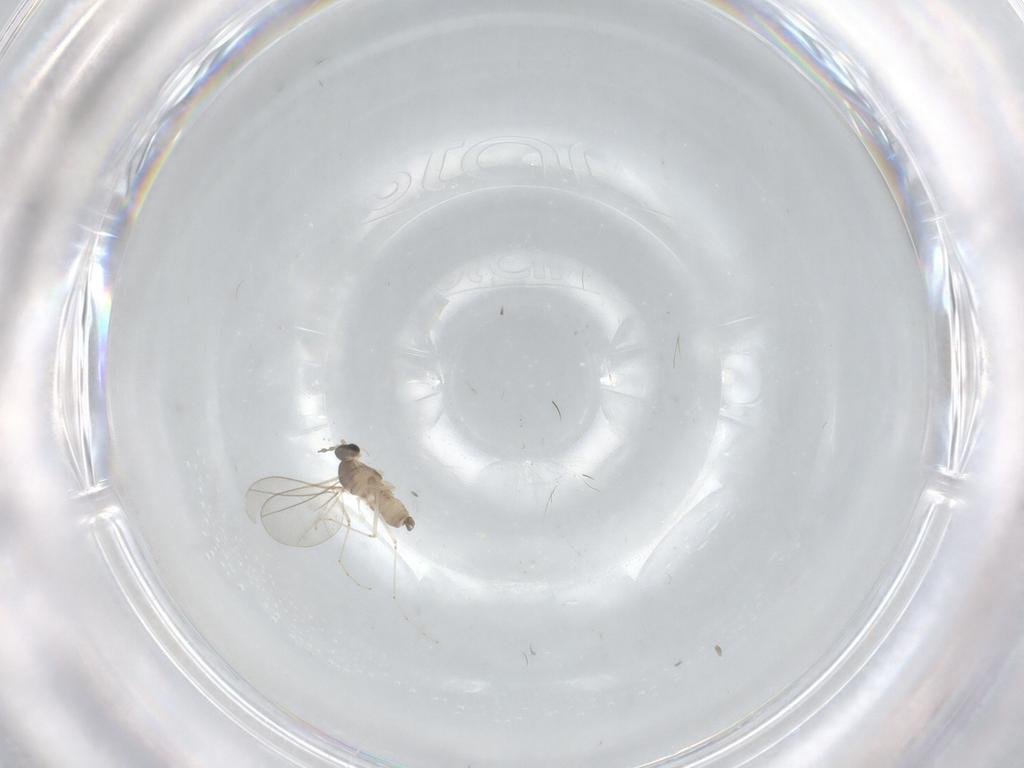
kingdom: Animalia
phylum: Arthropoda
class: Insecta
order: Diptera
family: Cecidomyiidae
